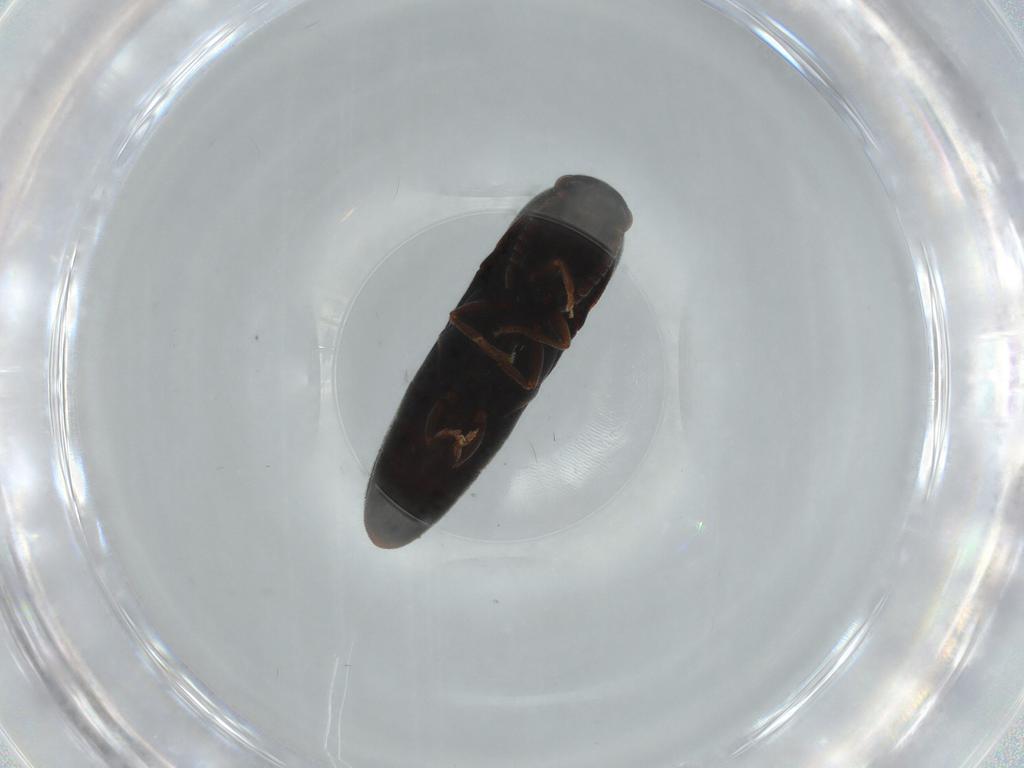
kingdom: Animalia
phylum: Arthropoda
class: Insecta
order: Coleoptera
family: Eucnemidae
